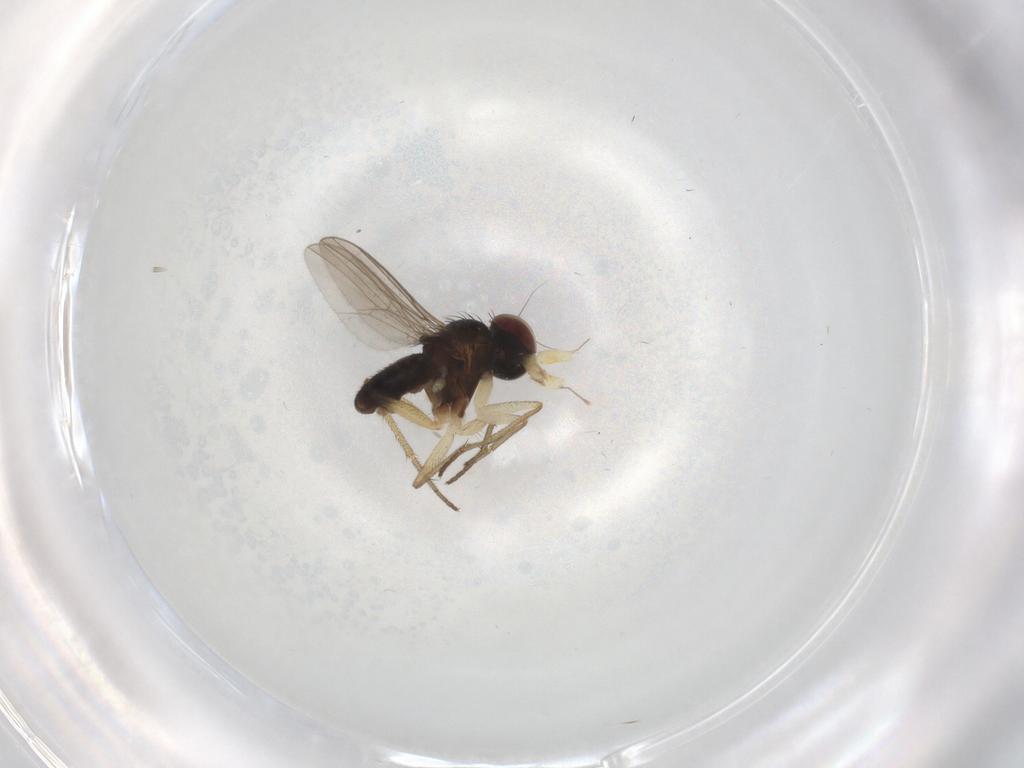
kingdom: Animalia
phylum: Arthropoda
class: Insecta
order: Diptera
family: Dolichopodidae
